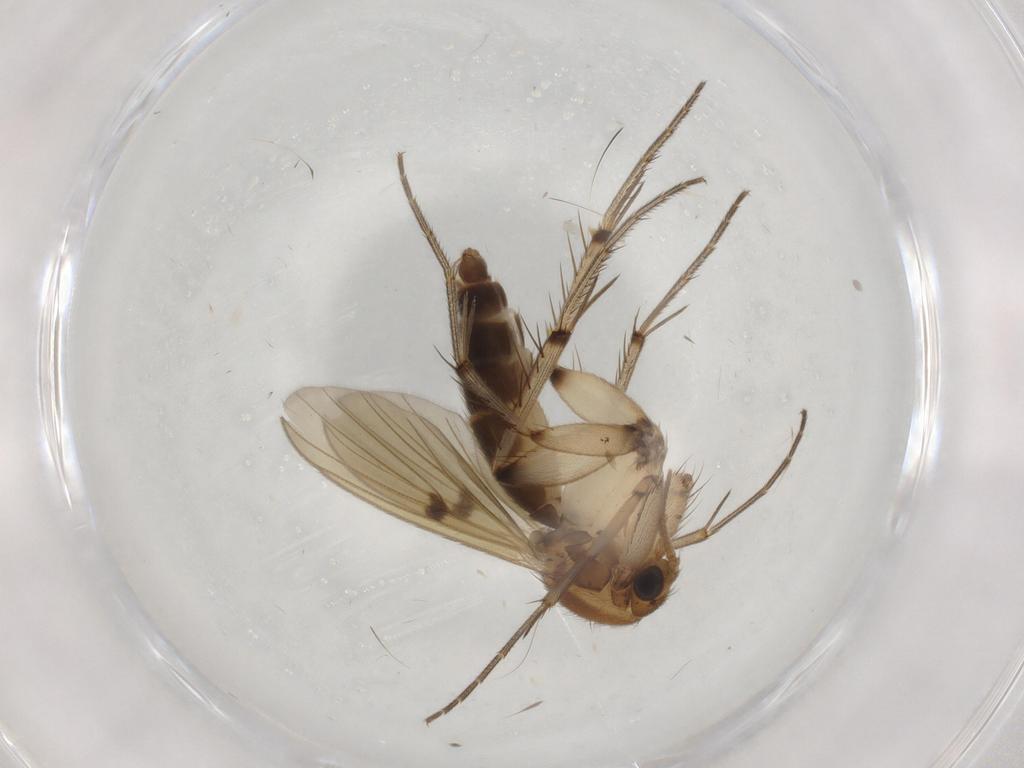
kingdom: Animalia
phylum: Arthropoda
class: Insecta
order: Diptera
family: Mycetophilidae
